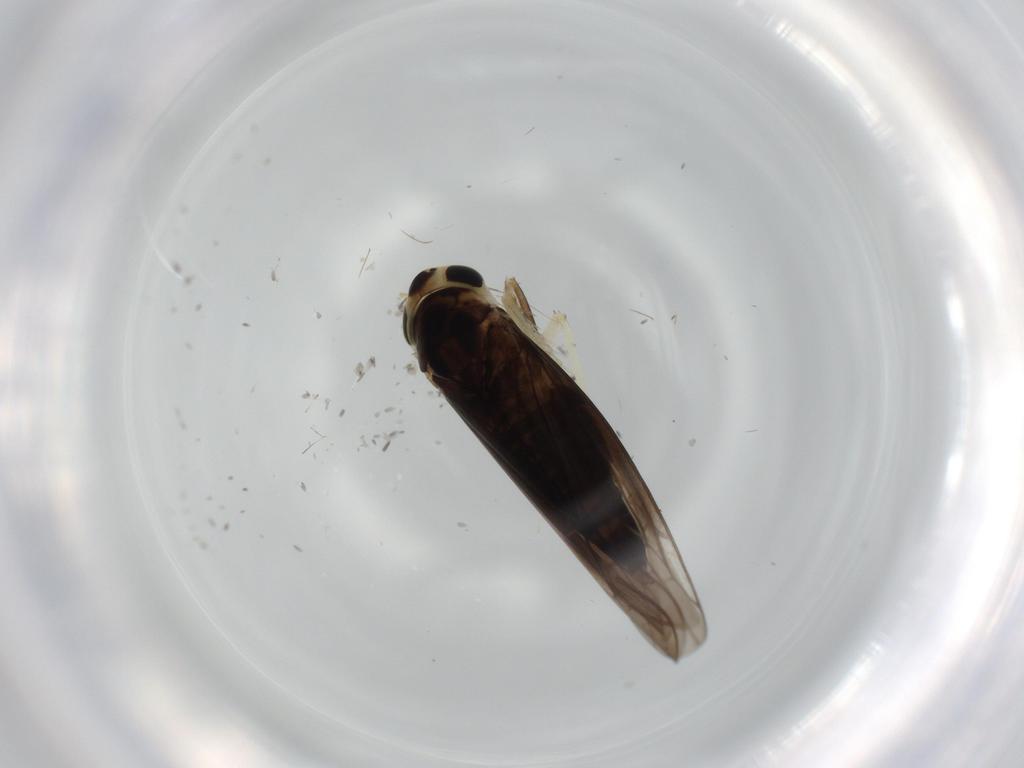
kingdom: Animalia
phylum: Arthropoda
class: Insecta
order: Hemiptera
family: Cicadellidae
